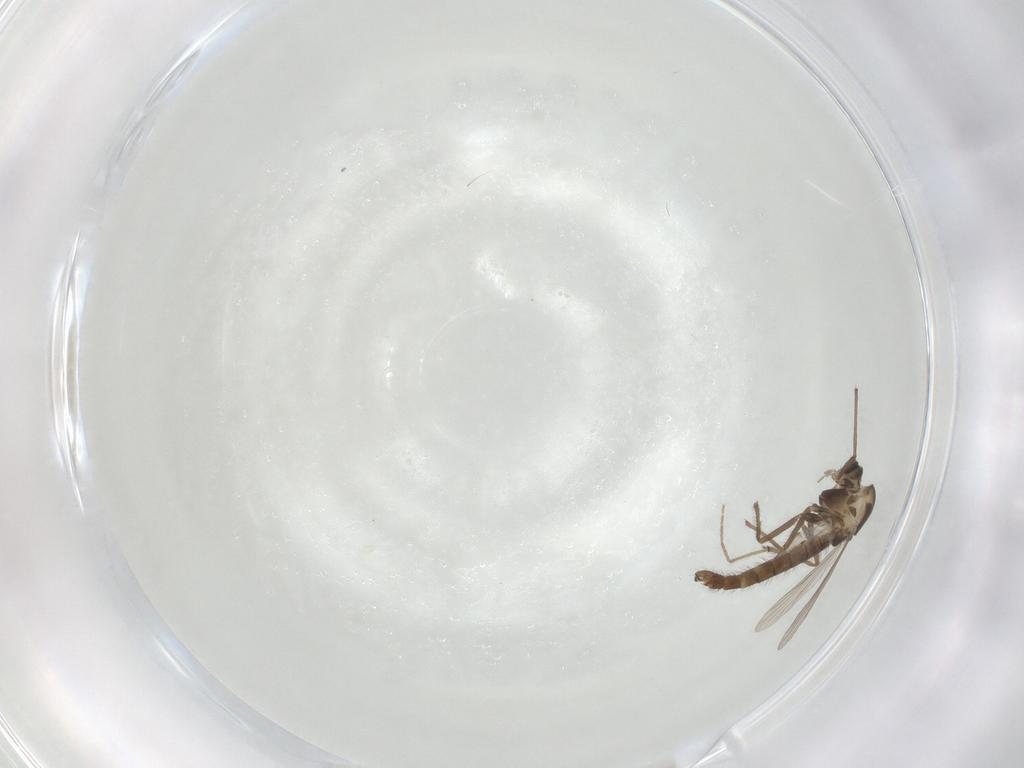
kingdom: Animalia
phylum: Arthropoda
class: Insecta
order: Diptera
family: Chironomidae
